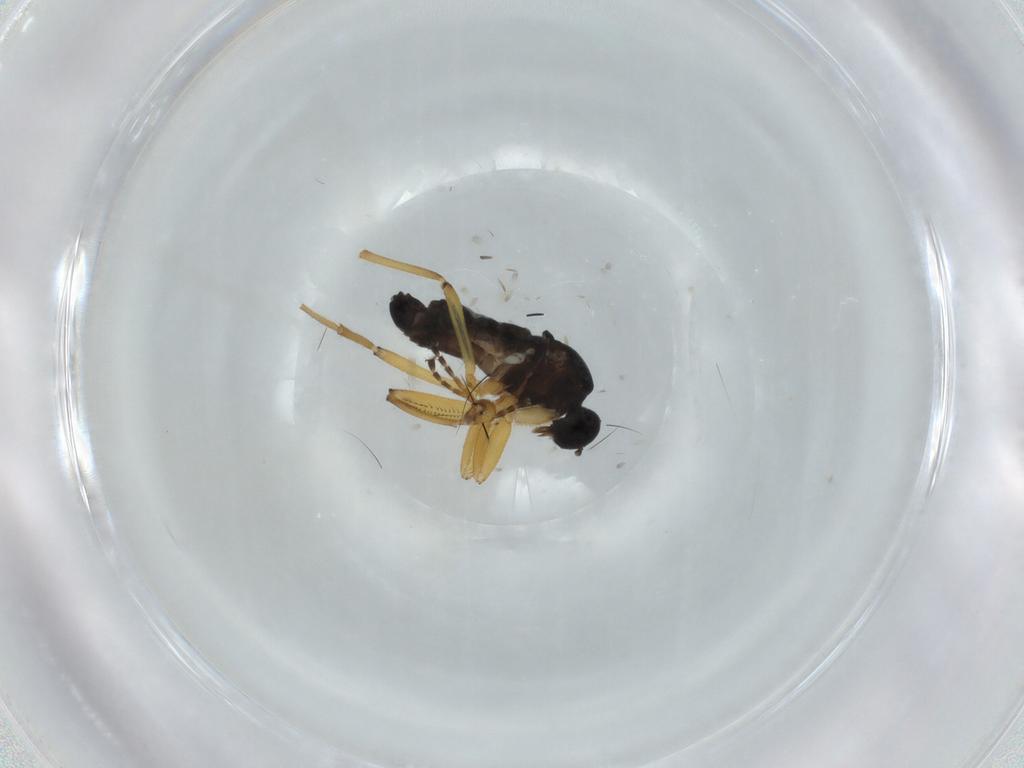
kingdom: Animalia
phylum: Arthropoda
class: Insecta
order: Diptera
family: Hybotidae
